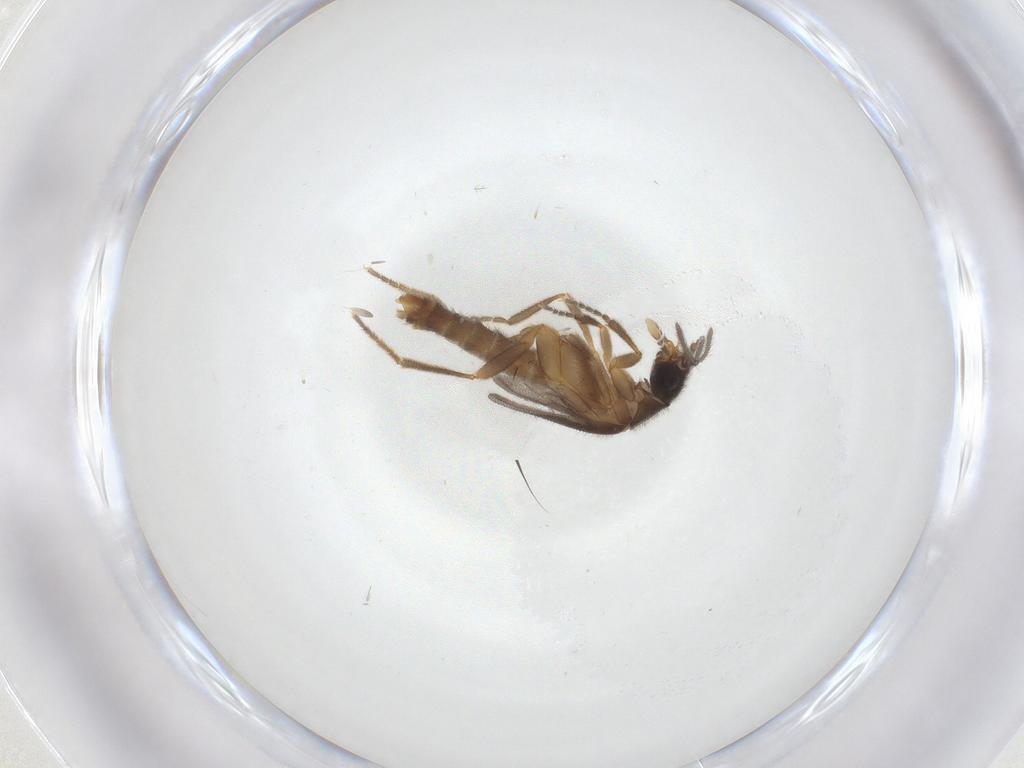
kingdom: Animalia
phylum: Arthropoda
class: Insecta
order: Coleoptera
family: Ptilodactylidae
